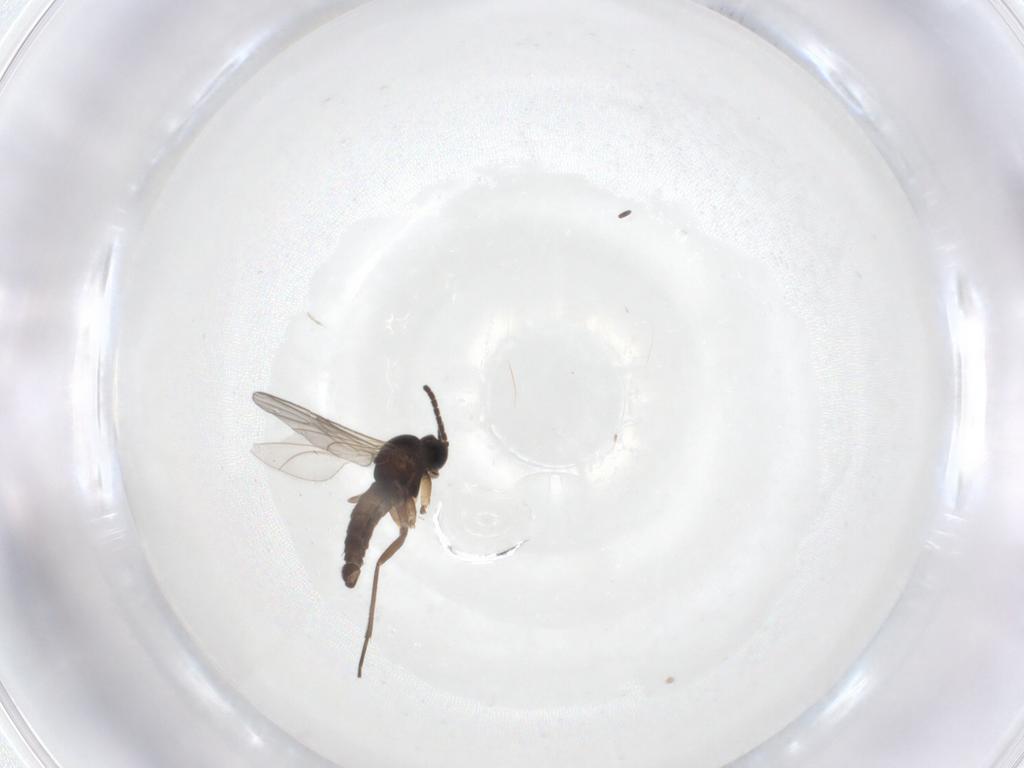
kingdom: Animalia
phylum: Arthropoda
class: Insecta
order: Diptera
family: Sciaridae
